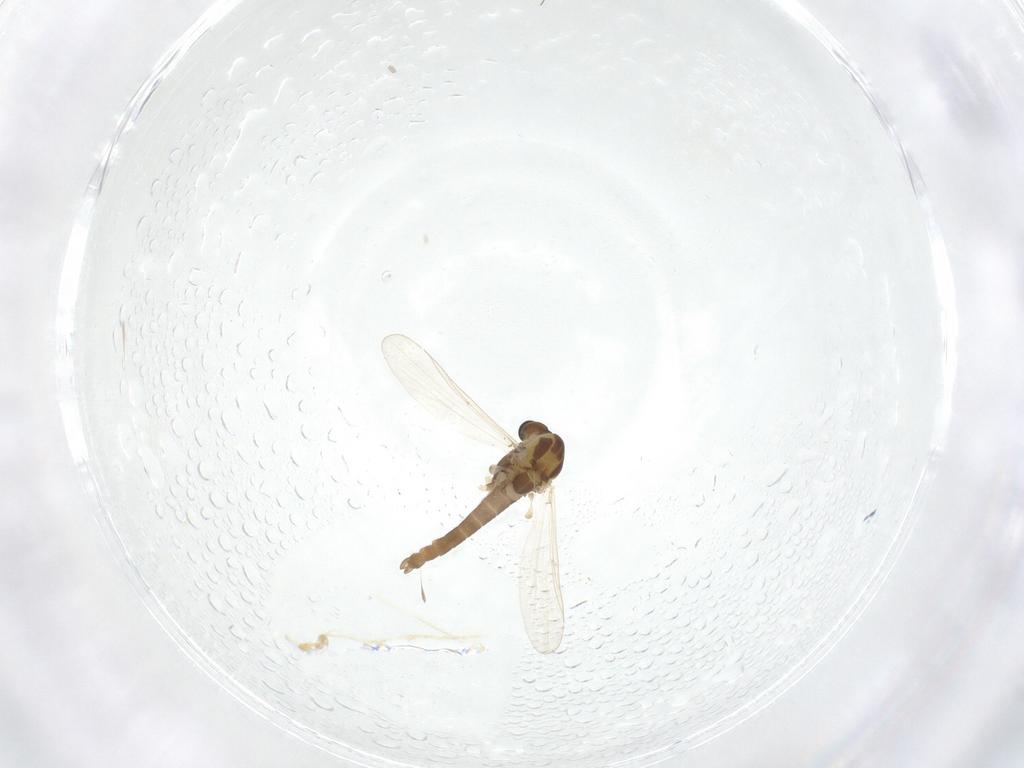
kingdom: Animalia
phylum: Arthropoda
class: Insecta
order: Diptera
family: Chironomidae
